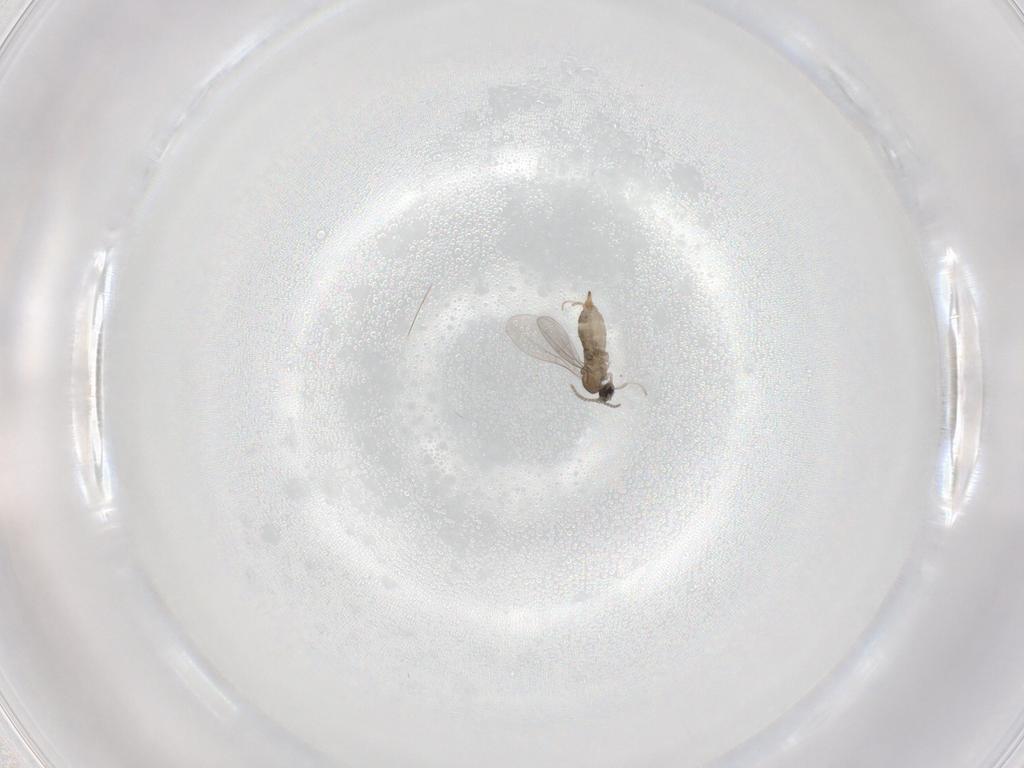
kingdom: Animalia
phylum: Arthropoda
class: Insecta
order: Diptera
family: Cecidomyiidae
